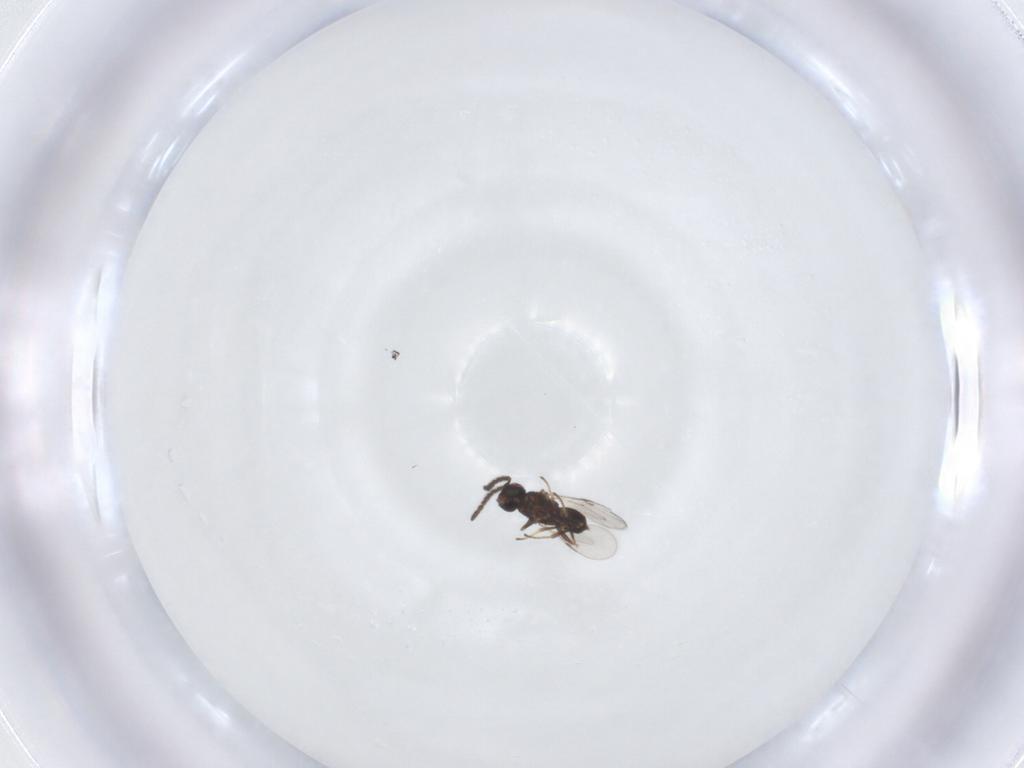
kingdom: Animalia
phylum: Arthropoda
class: Insecta
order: Hymenoptera
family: Encyrtidae
